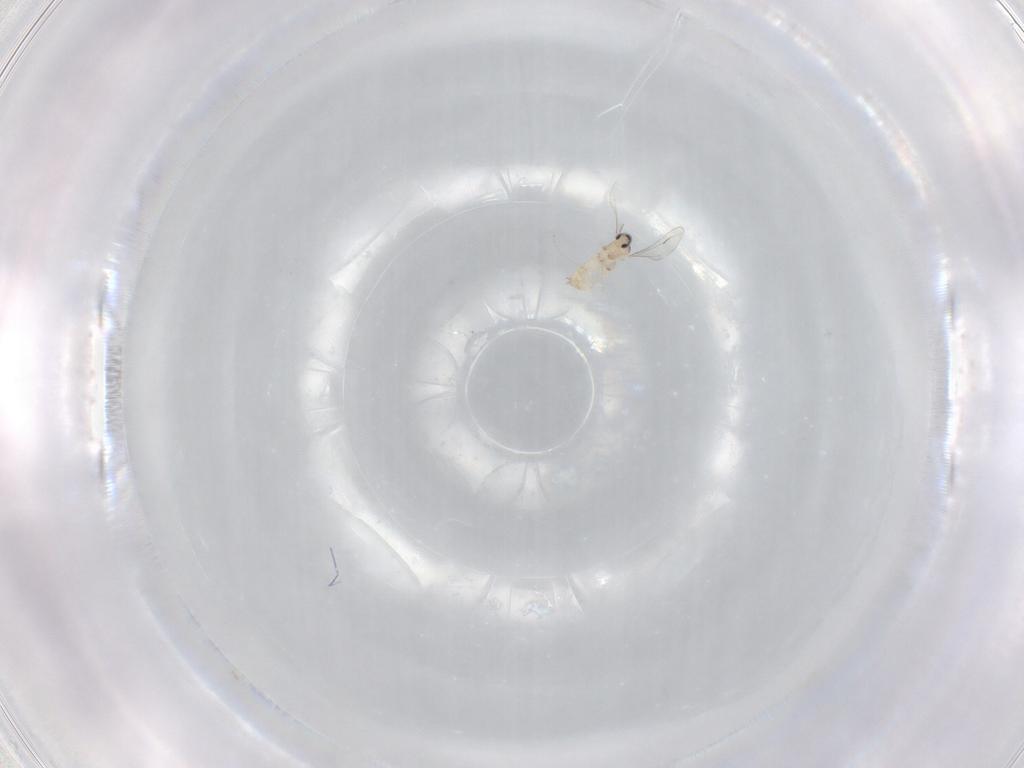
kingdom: Animalia
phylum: Arthropoda
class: Insecta
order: Diptera
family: Cecidomyiidae
